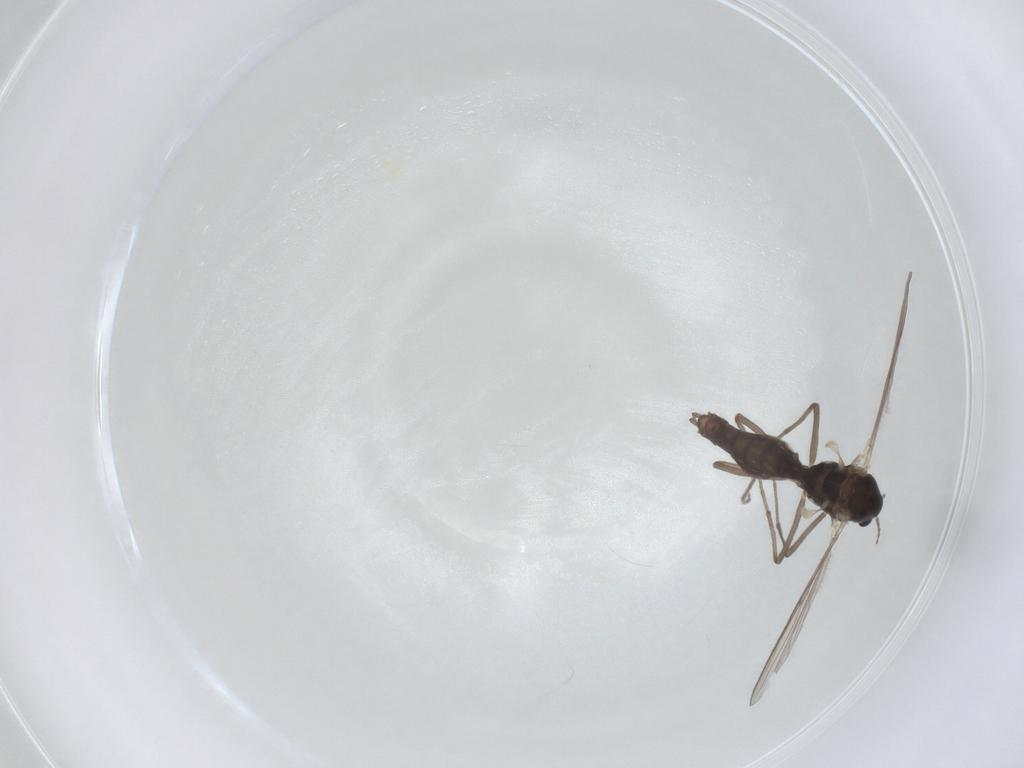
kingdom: Animalia
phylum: Arthropoda
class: Insecta
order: Diptera
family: Chironomidae
